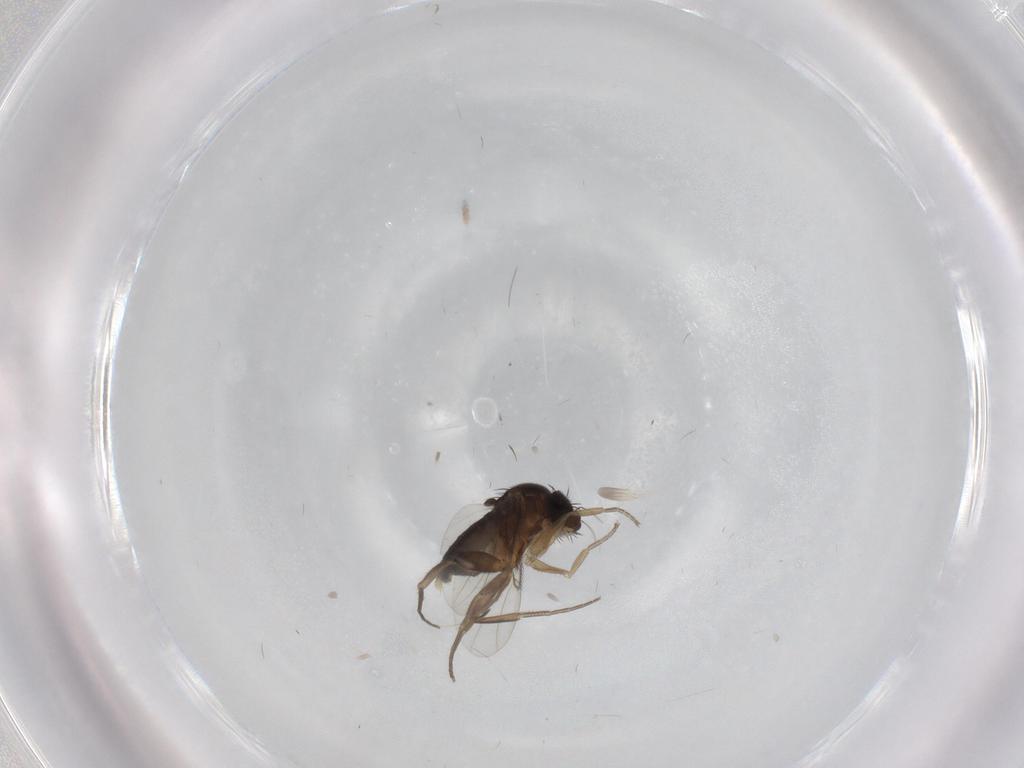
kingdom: Animalia
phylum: Arthropoda
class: Insecta
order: Diptera
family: Phoridae
